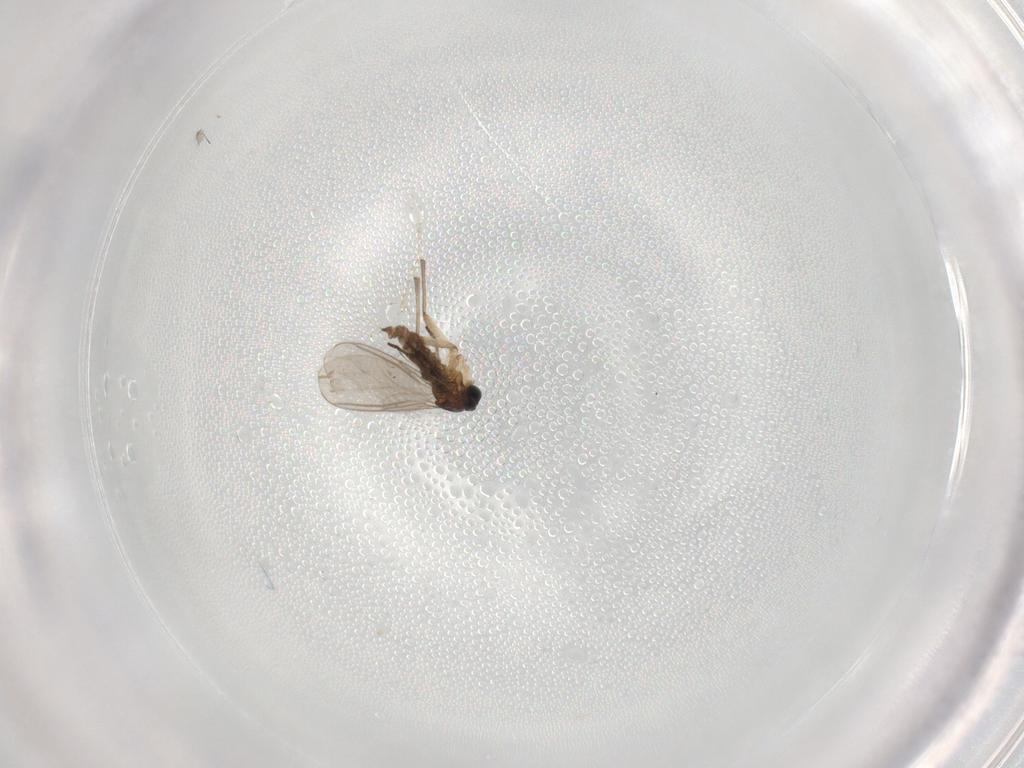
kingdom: Animalia
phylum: Arthropoda
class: Insecta
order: Diptera
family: Cecidomyiidae
